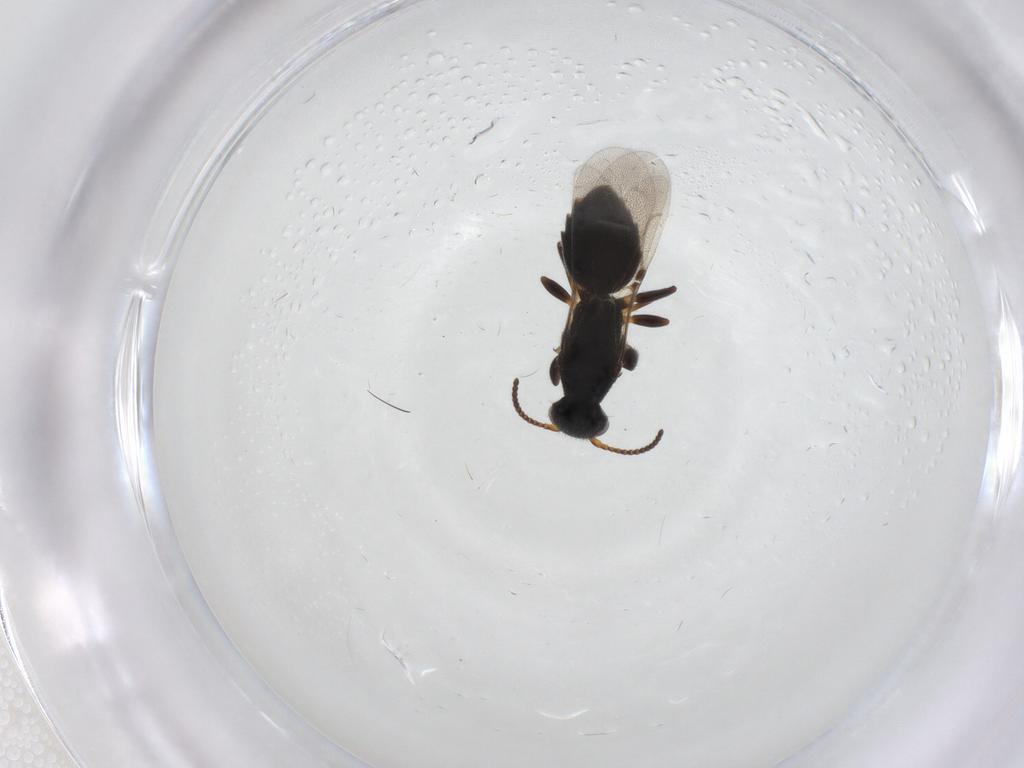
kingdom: Animalia
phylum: Arthropoda
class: Insecta
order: Hymenoptera
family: Bethylidae
